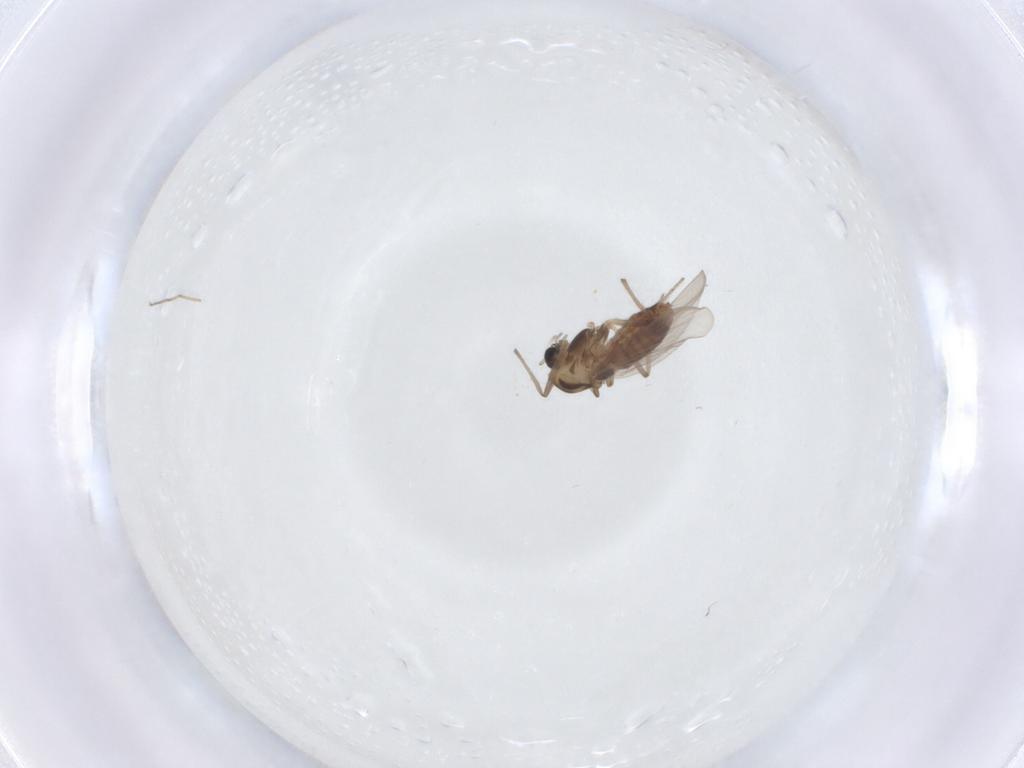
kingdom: Animalia
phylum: Arthropoda
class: Insecta
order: Diptera
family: Chironomidae
